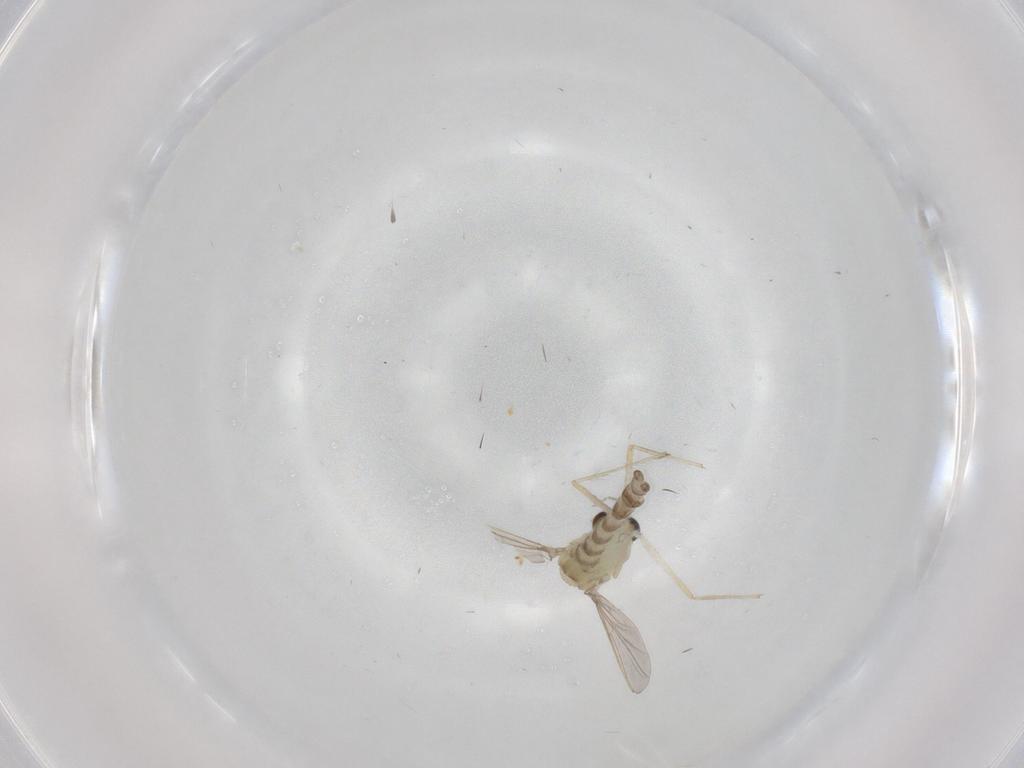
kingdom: Animalia
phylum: Arthropoda
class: Insecta
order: Diptera
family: Chironomidae
